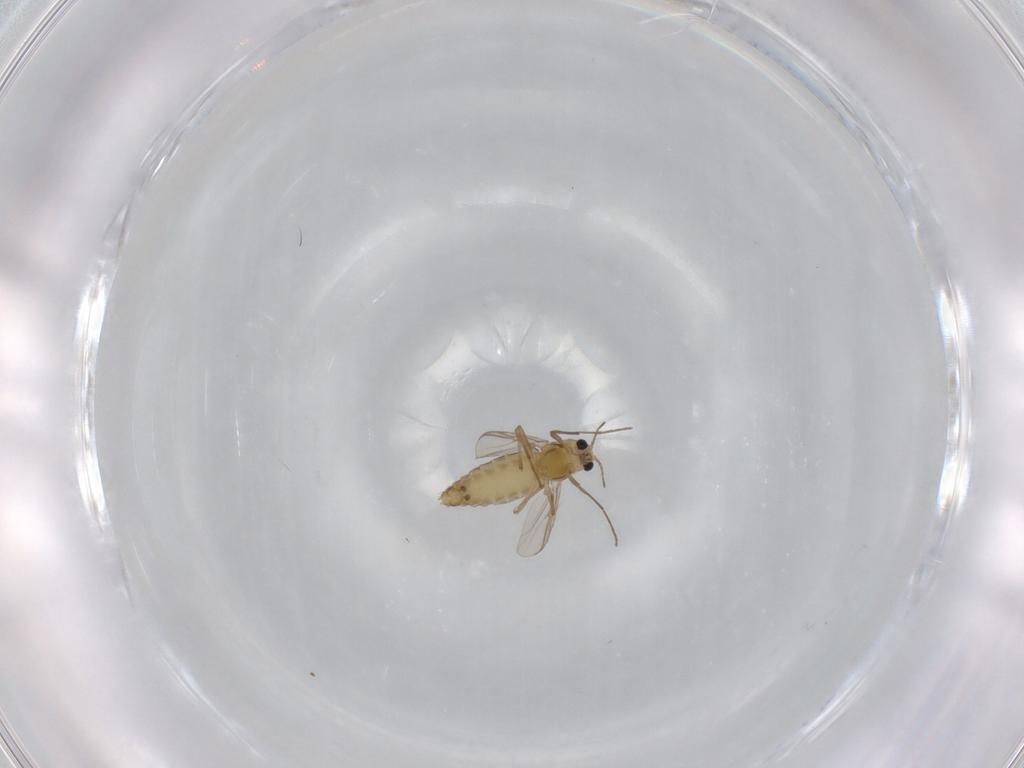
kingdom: Animalia
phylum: Arthropoda
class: Insecta
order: Diptera
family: Chironomidae
